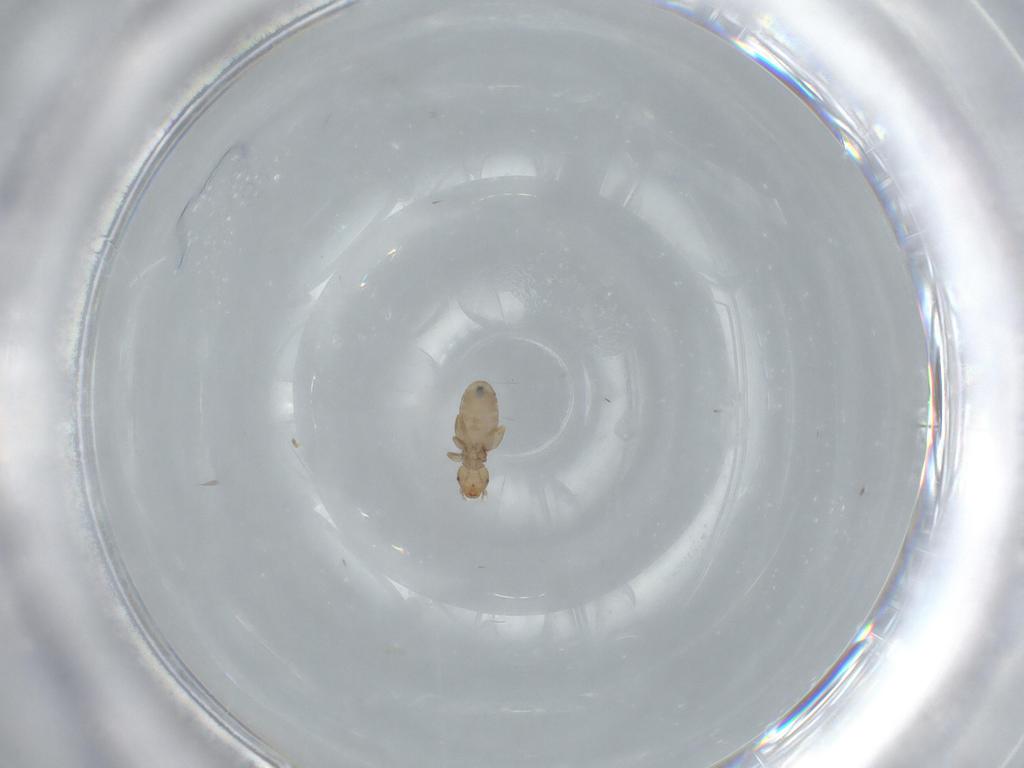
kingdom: Animalia
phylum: Arthropoda
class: Insecta
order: Psocodea
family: Liposcelididae
